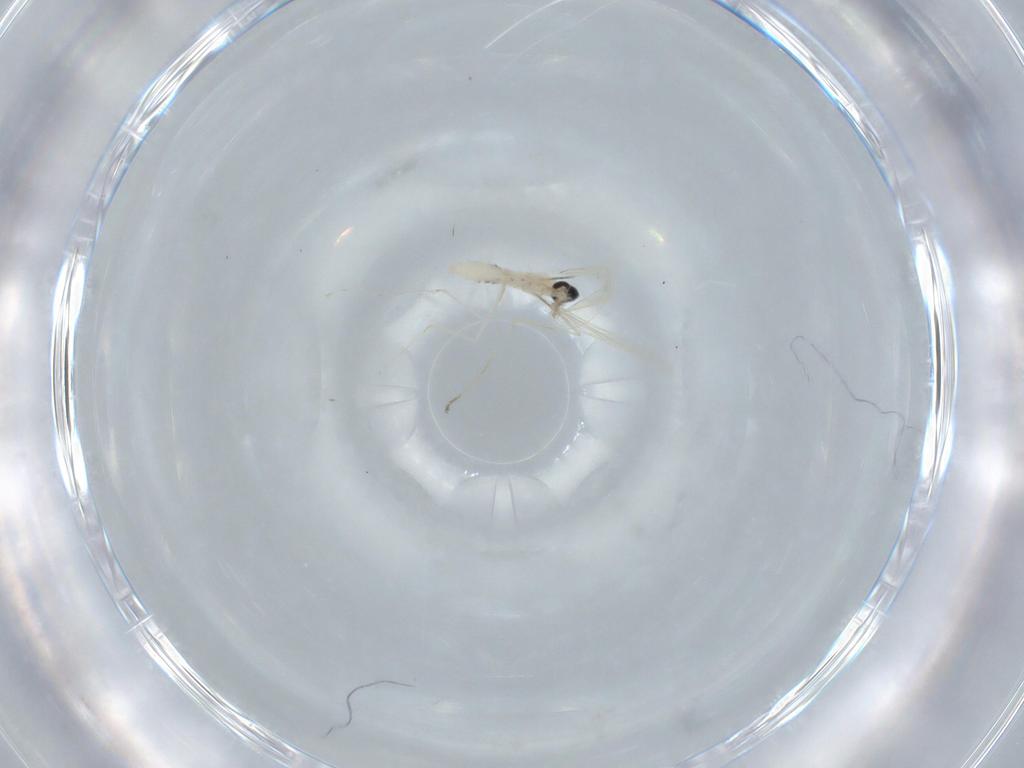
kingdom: Animalia
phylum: Arthropoda
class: Insecta
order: Diptera
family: Cecidomyiidae
